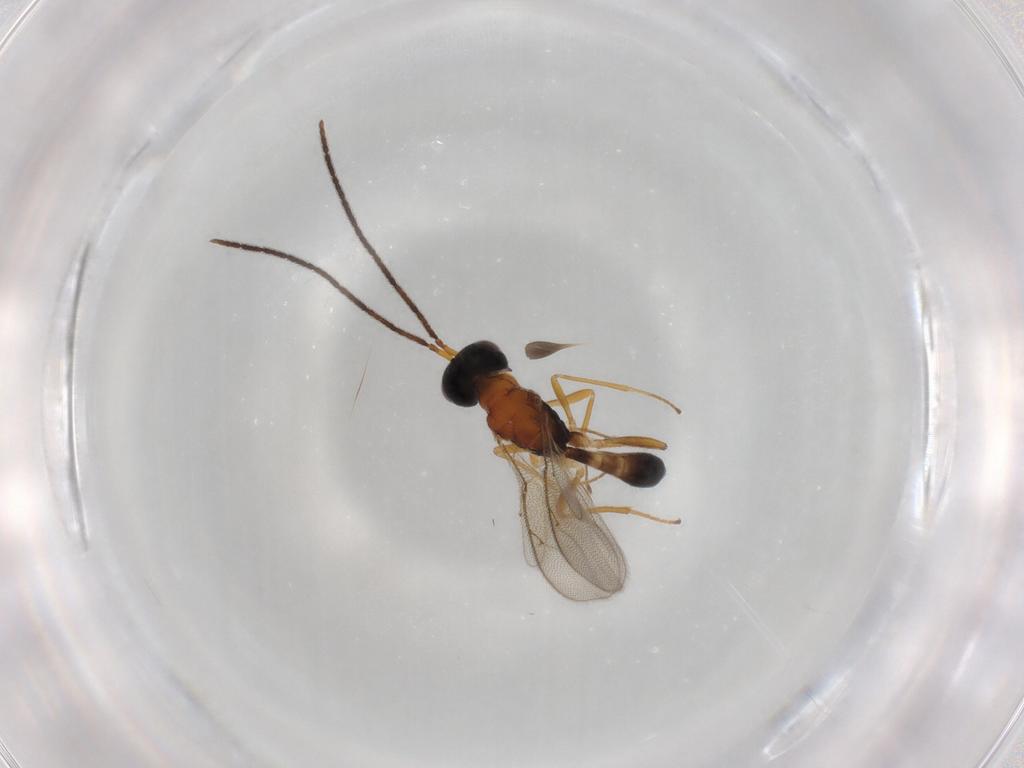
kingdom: Animalia
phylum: Arthropoda
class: Insecta
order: Hymenoptera
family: Pteromalidae
